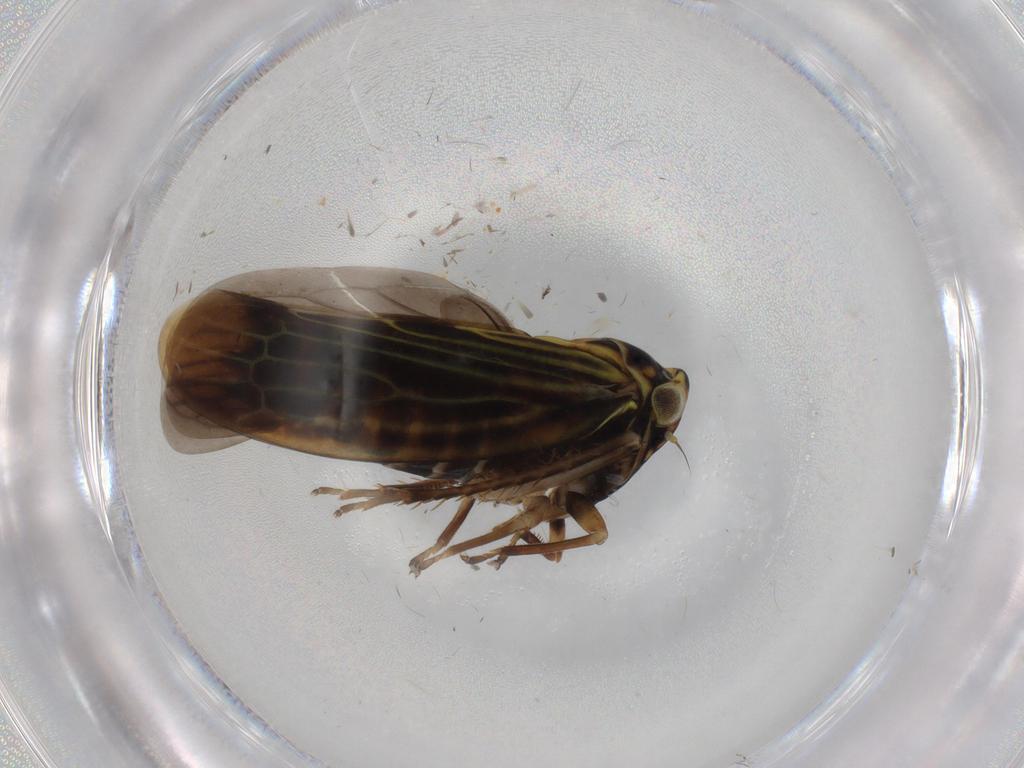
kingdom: Animalia
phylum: Arthropoda
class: Insecta
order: Hemiptera
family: Cicadellidae
